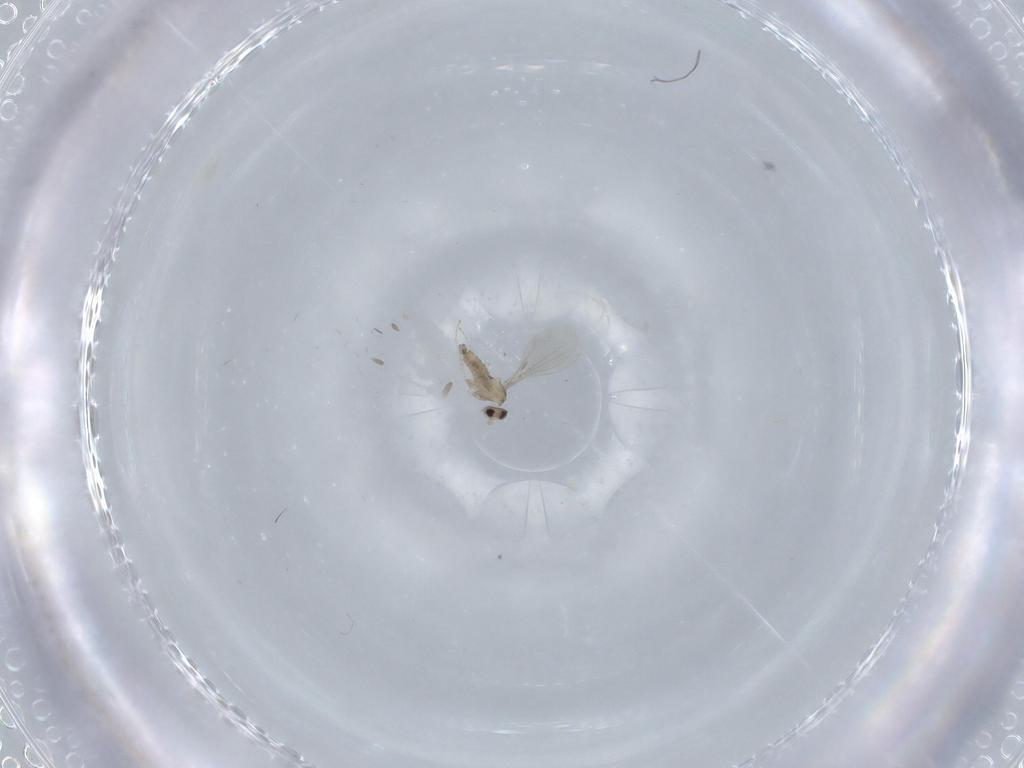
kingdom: Animalia
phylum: Arthropoda
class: Insecta
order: Diptera
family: Cecidomyiidae
